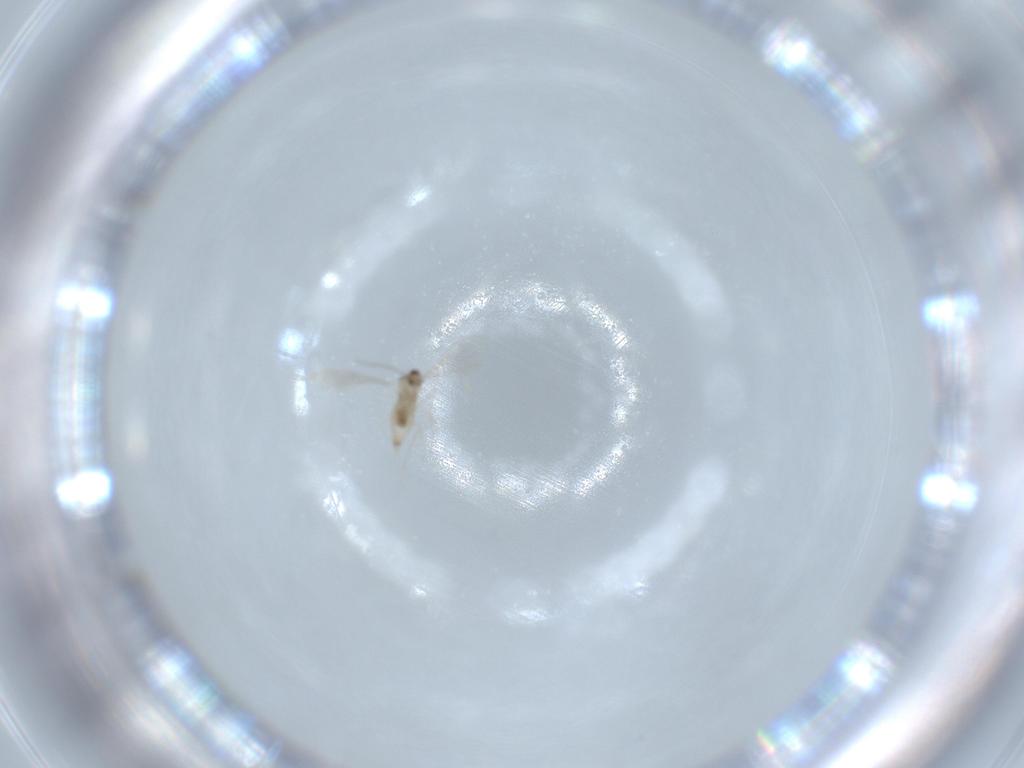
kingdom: Animalia
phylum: Arthropoda
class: Insecta
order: Diptera
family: Cecidomyiidae
